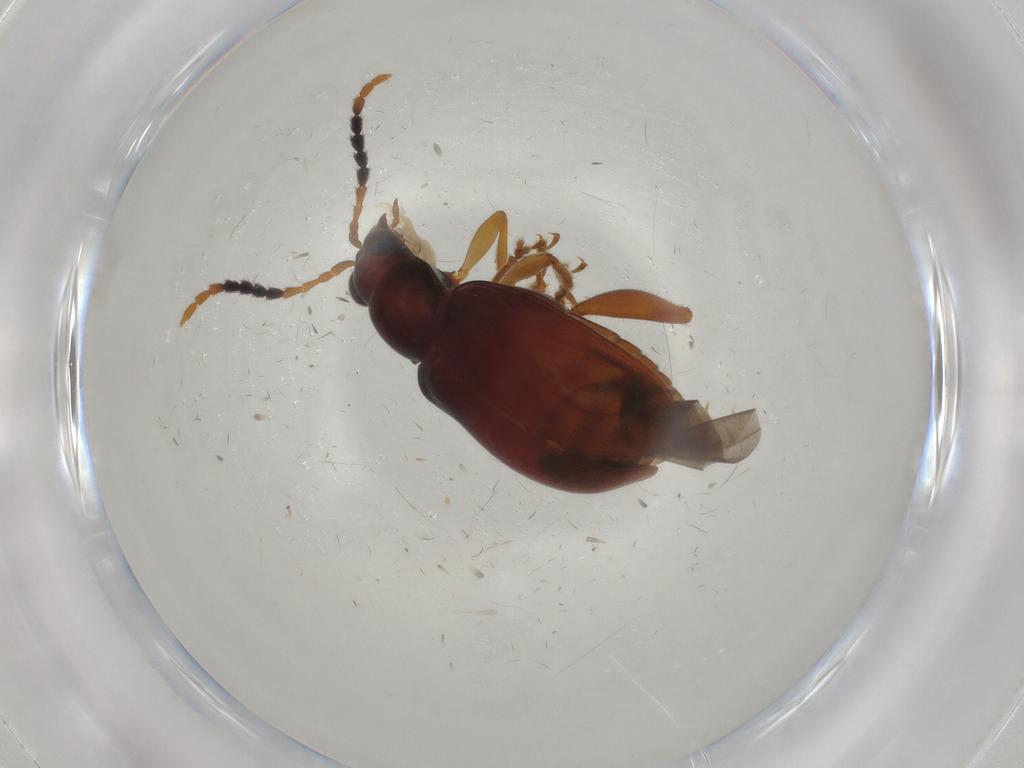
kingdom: Animalia
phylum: Arthropoda
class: Insecta
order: Coleoptera
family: Chrysomelidae
